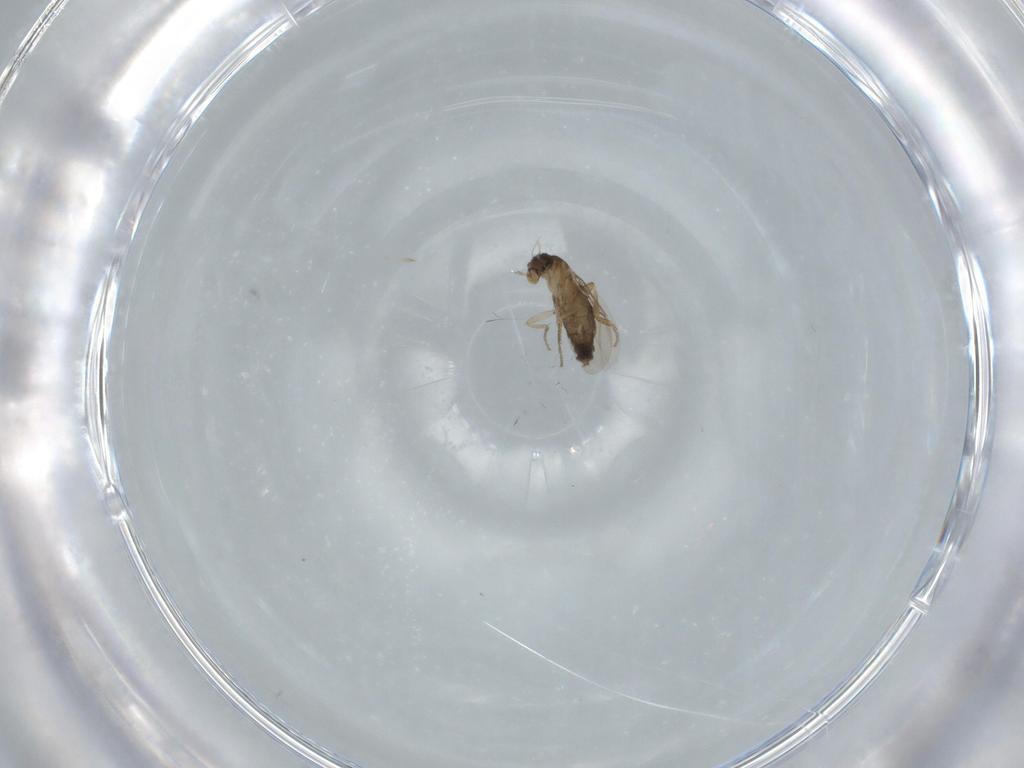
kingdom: Animalia
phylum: Arthropoda
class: Insecta
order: Diptera
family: Phoridae
